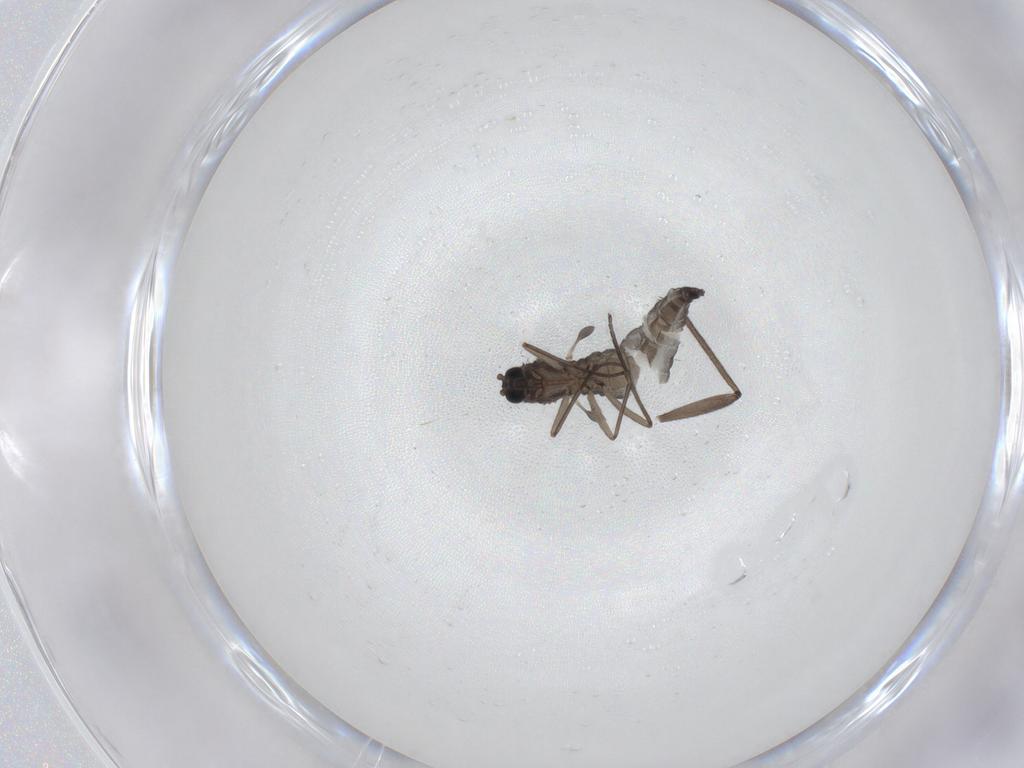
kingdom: Animalia
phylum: Arthropoda
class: Insecta
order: Diptera
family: Sciaridae
